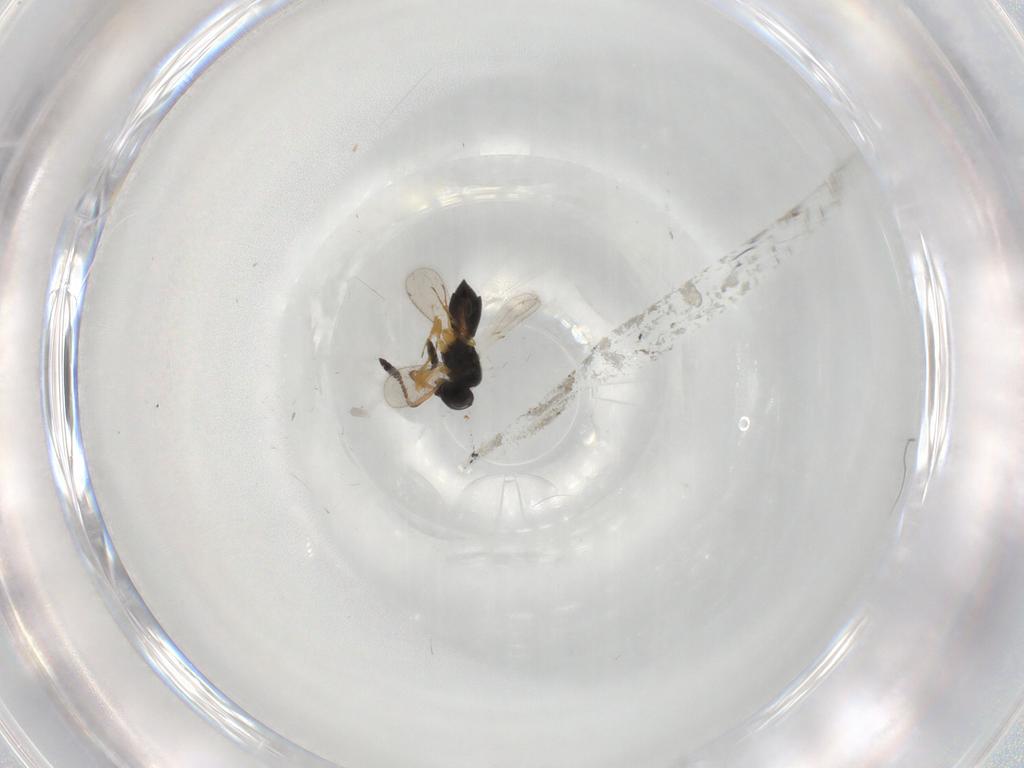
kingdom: Animalia
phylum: Arthropoda
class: Insecta
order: Hymenoptera
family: Scelionidae
